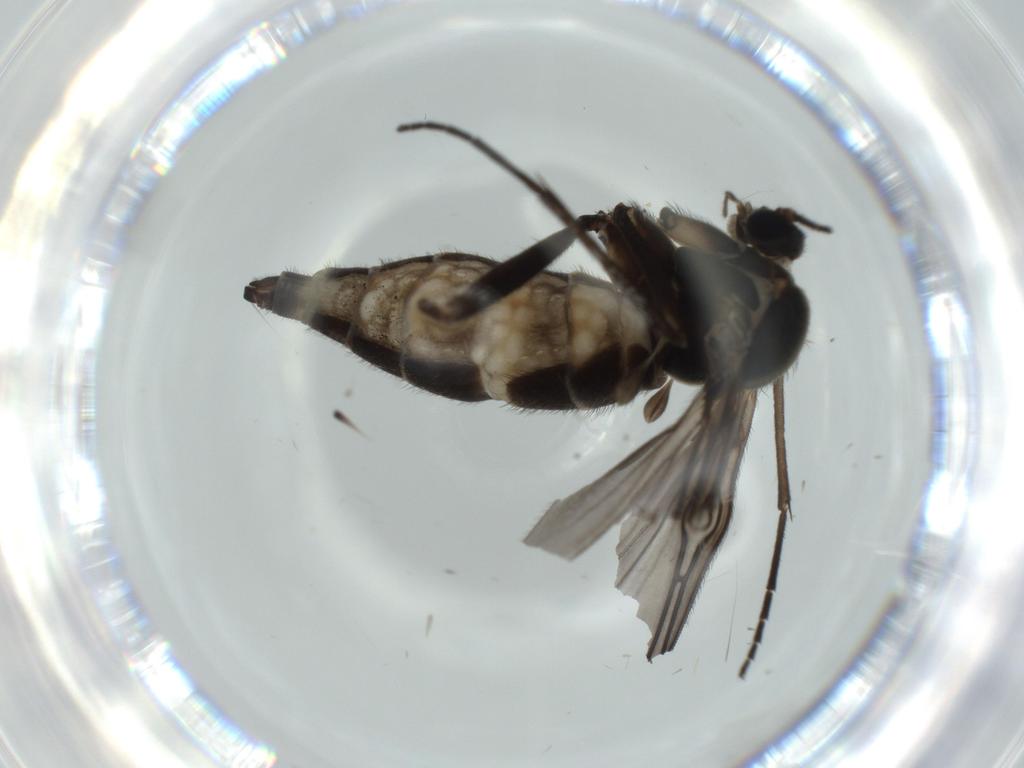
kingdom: Animalia
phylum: Arthropoda
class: Insecta
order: Diptera
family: Sciaridae
